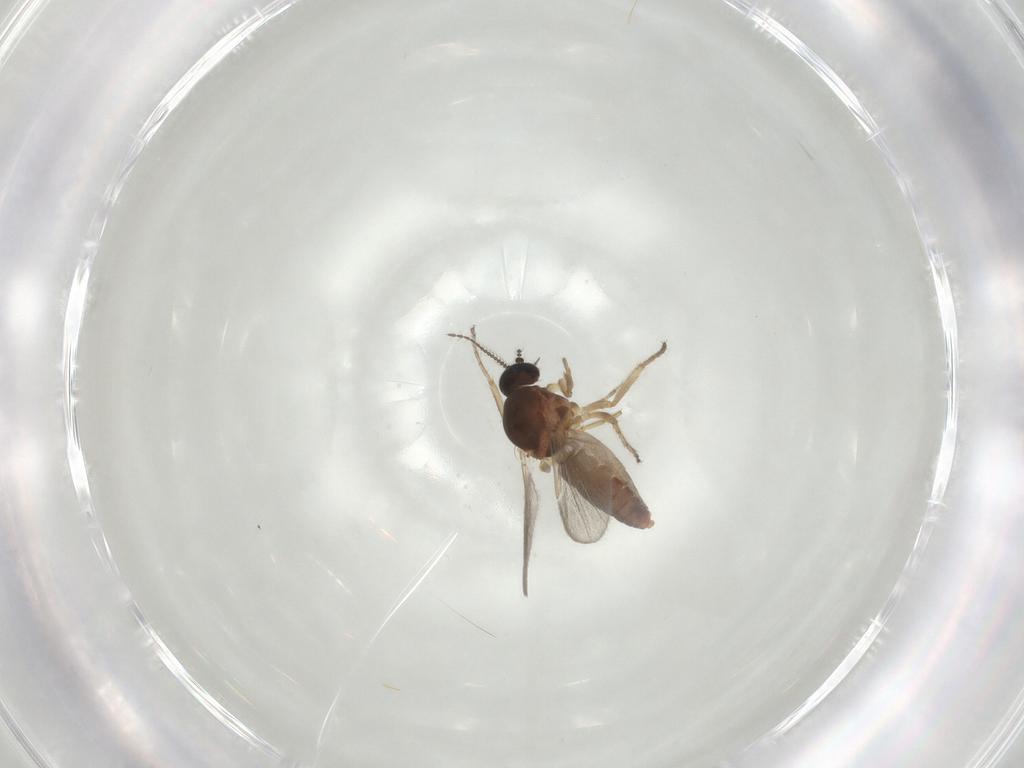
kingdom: Animalia
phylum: Arthropoda
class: Insecta
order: Diptera
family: Ceratopogonidae
